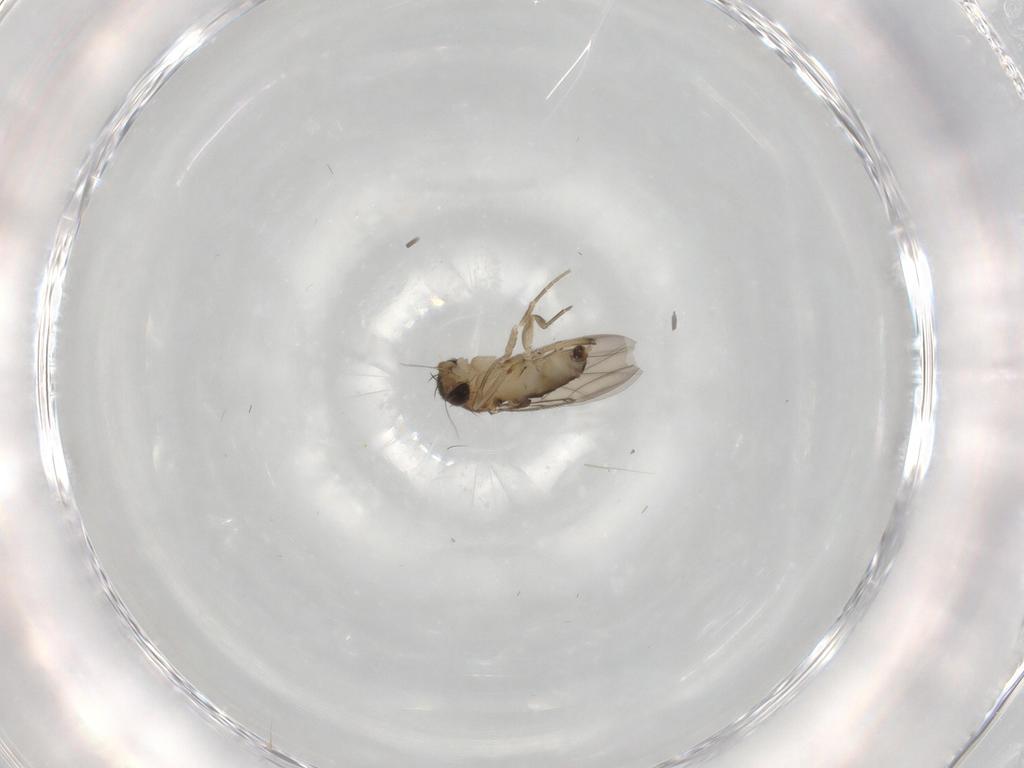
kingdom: Animalia
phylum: Arthropoda
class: Insecta
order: Diptera
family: Phoridae
